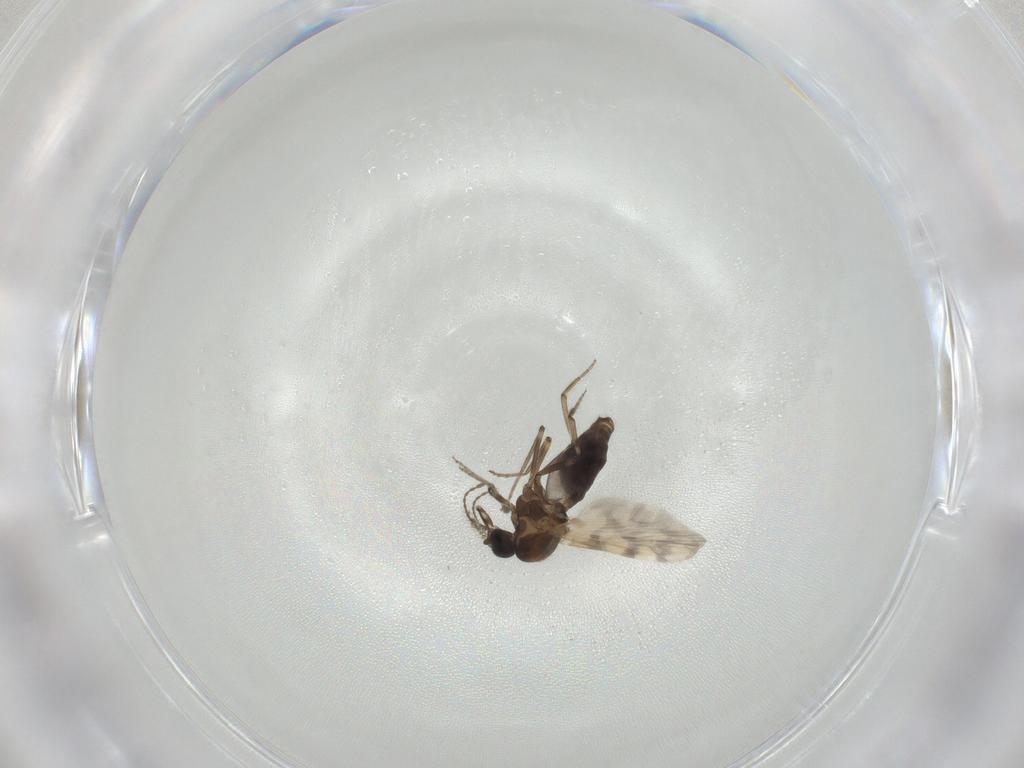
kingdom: Animalia
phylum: Arthropoda
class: Insecta
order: Diptera
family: Ceratopogonidae
